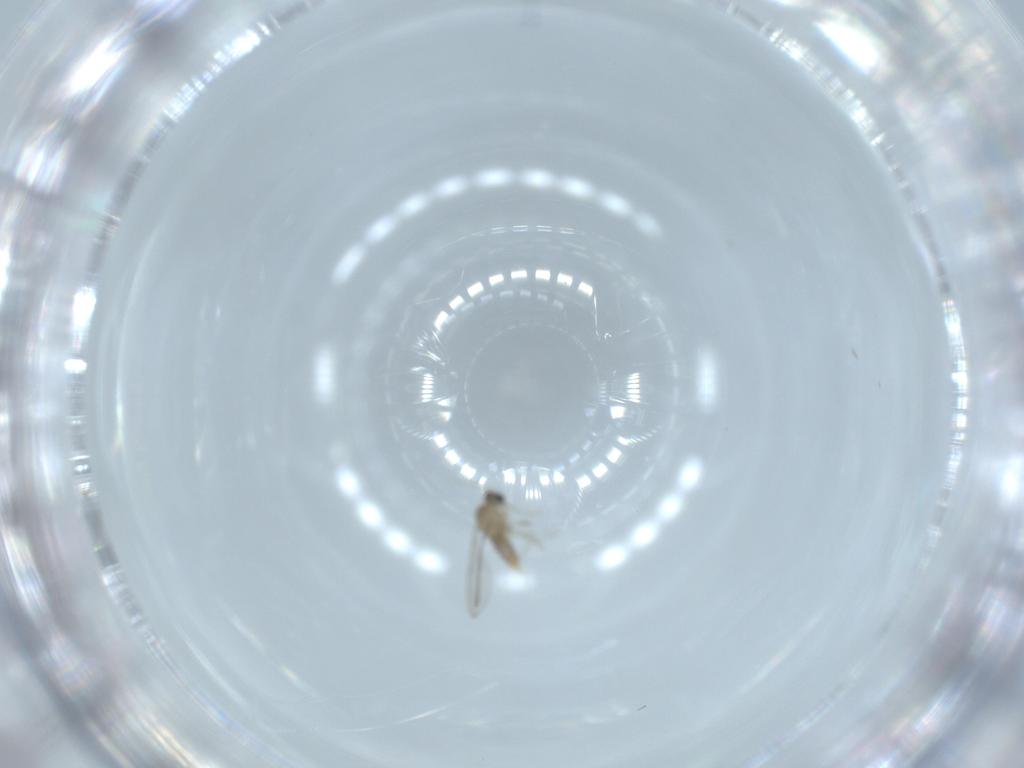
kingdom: Animalia
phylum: Arthropoda
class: Insecta
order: Diptera
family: Cecidomyiidae
